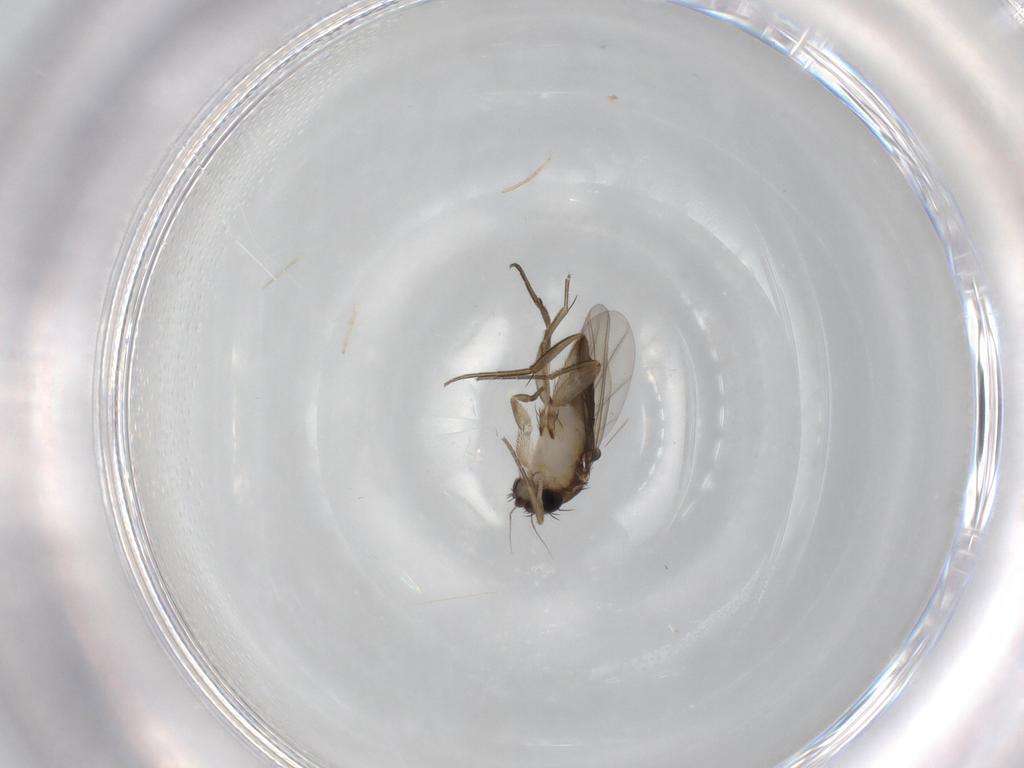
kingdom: Animalia
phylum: Arthropoda
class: Insecta
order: Diptera
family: Phoridae
